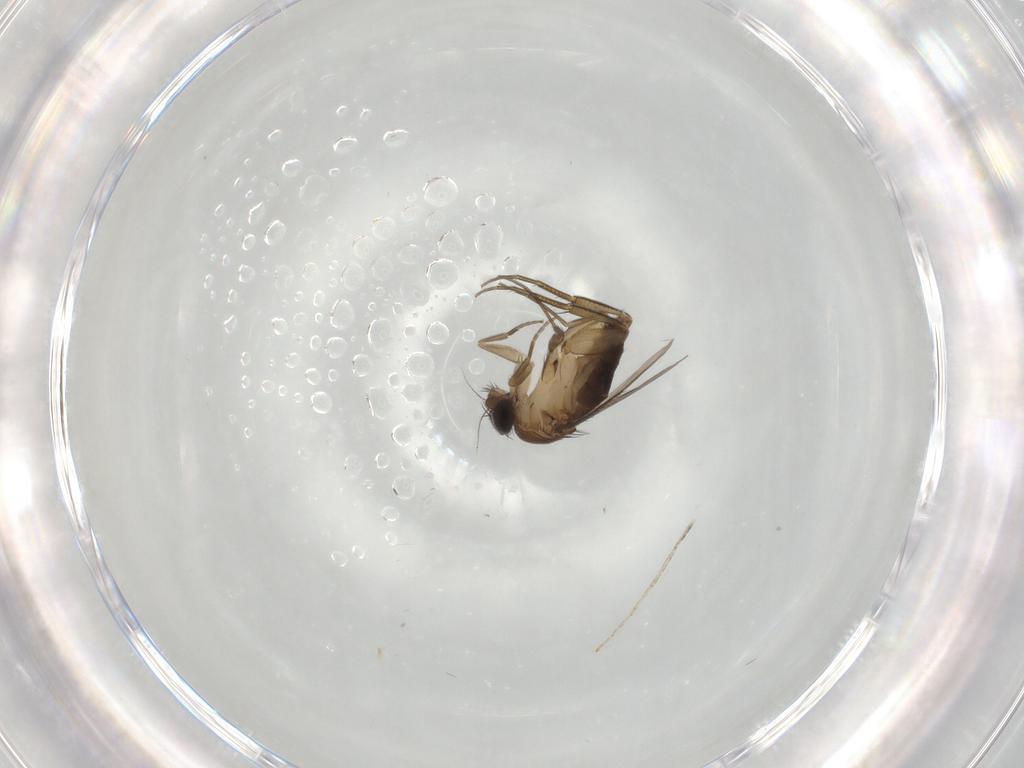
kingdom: Animalia
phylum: Arthropoda
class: Insecta
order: Diptera
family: Phoridae
